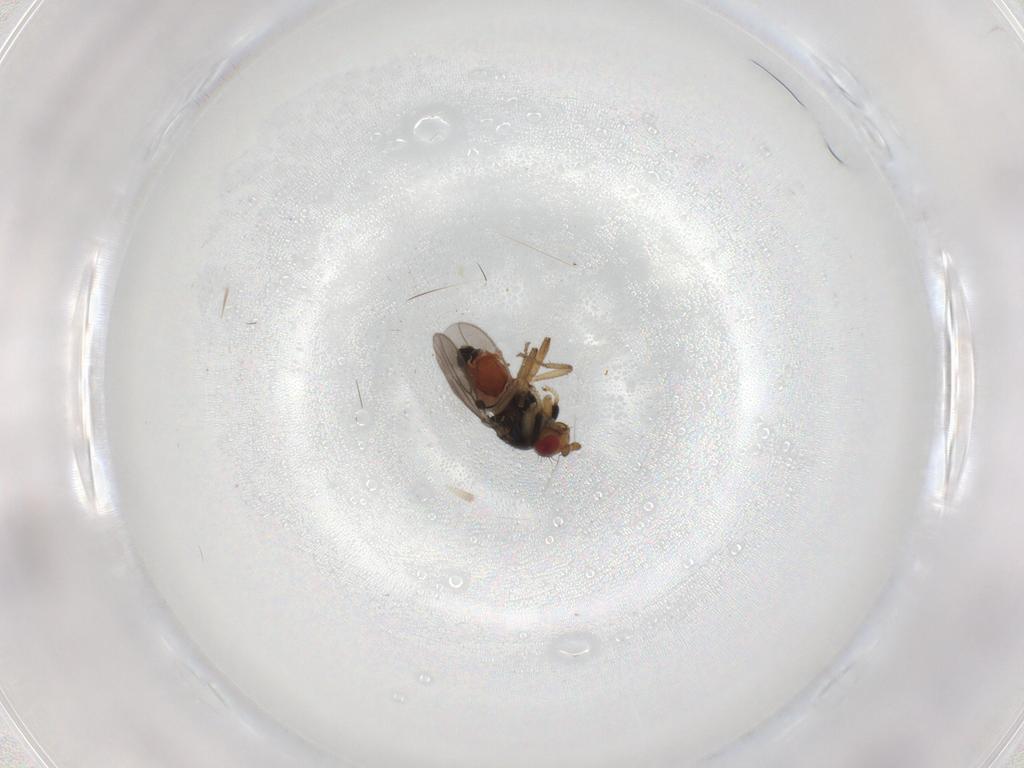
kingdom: Animalia
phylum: Arthropoda
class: Insecta
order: Diptera
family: Sphaeroceridae
